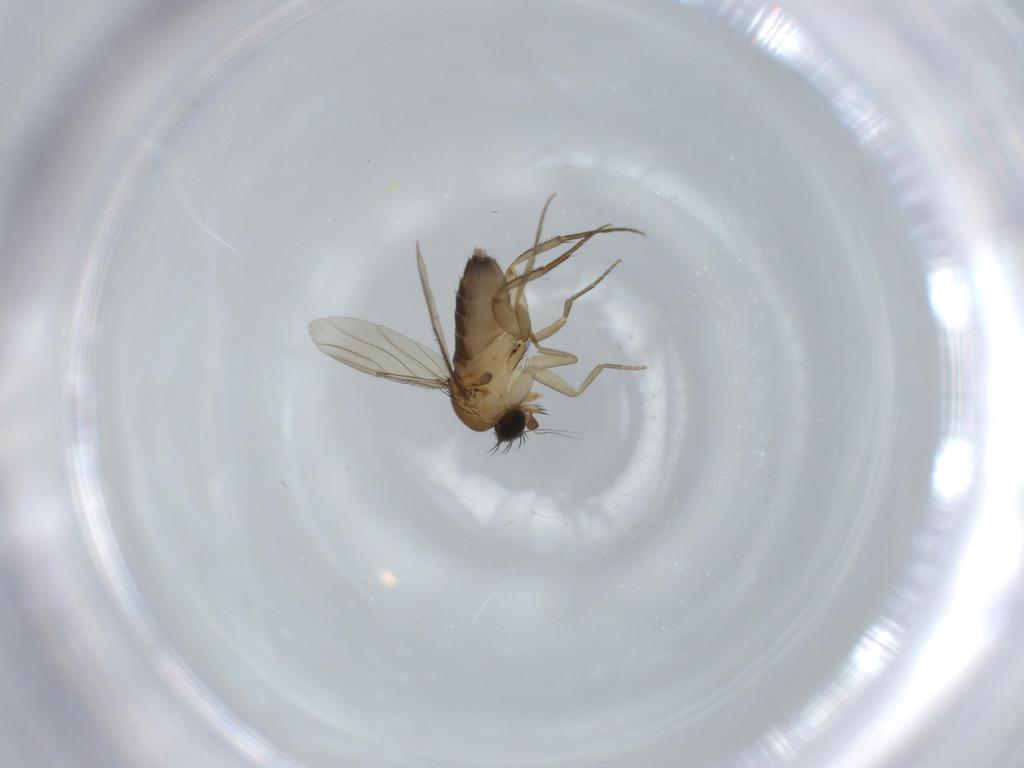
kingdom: Animalia
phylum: Arthropoda
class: Insecta
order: Diptera
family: Phoridae
